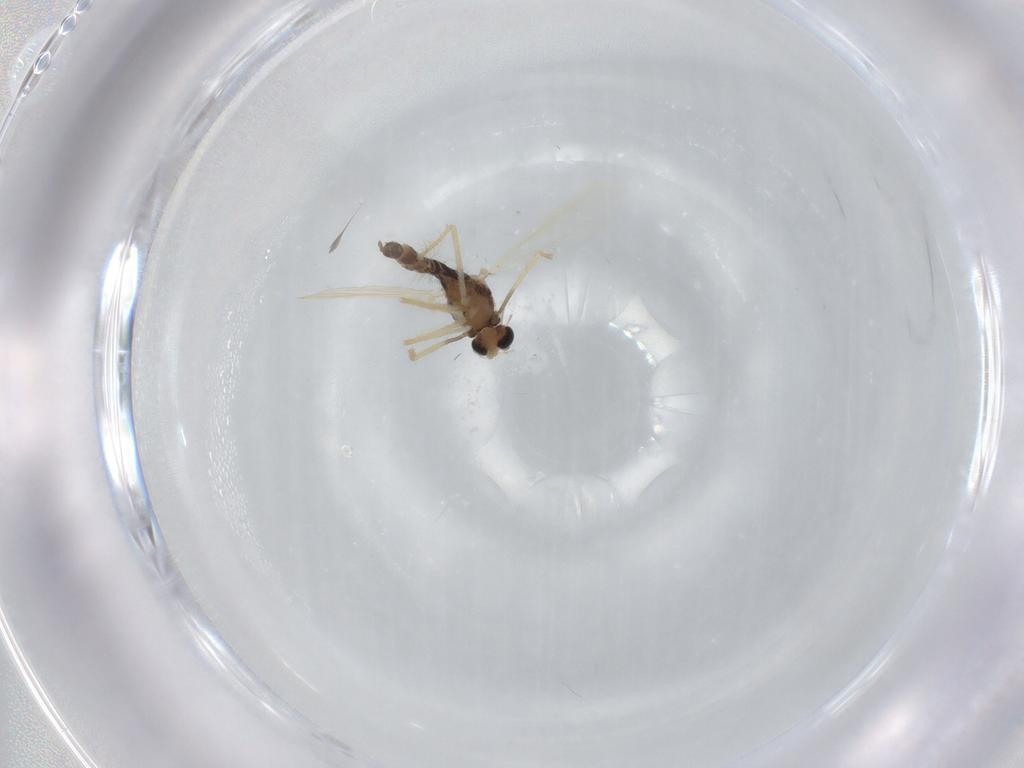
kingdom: Animalia
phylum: Arthropoda
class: Insecta
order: Diptera
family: Chironomidae
